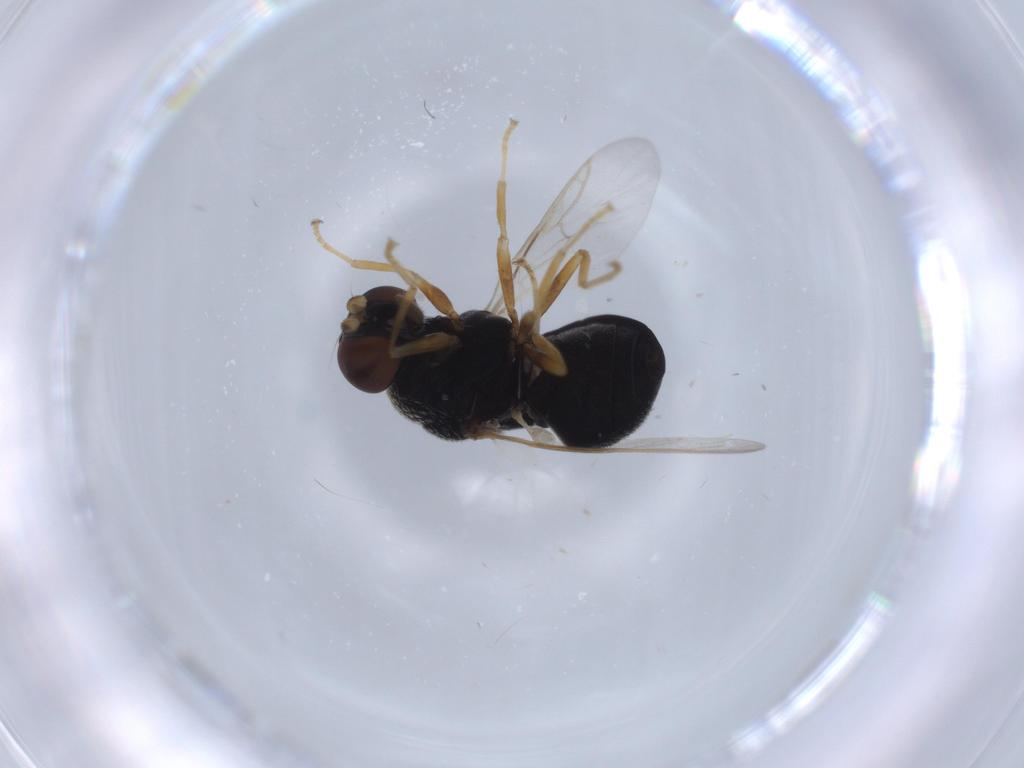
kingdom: Animalia
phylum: Arthropoda
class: Insecta
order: Diptera
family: Stratiomyidae
